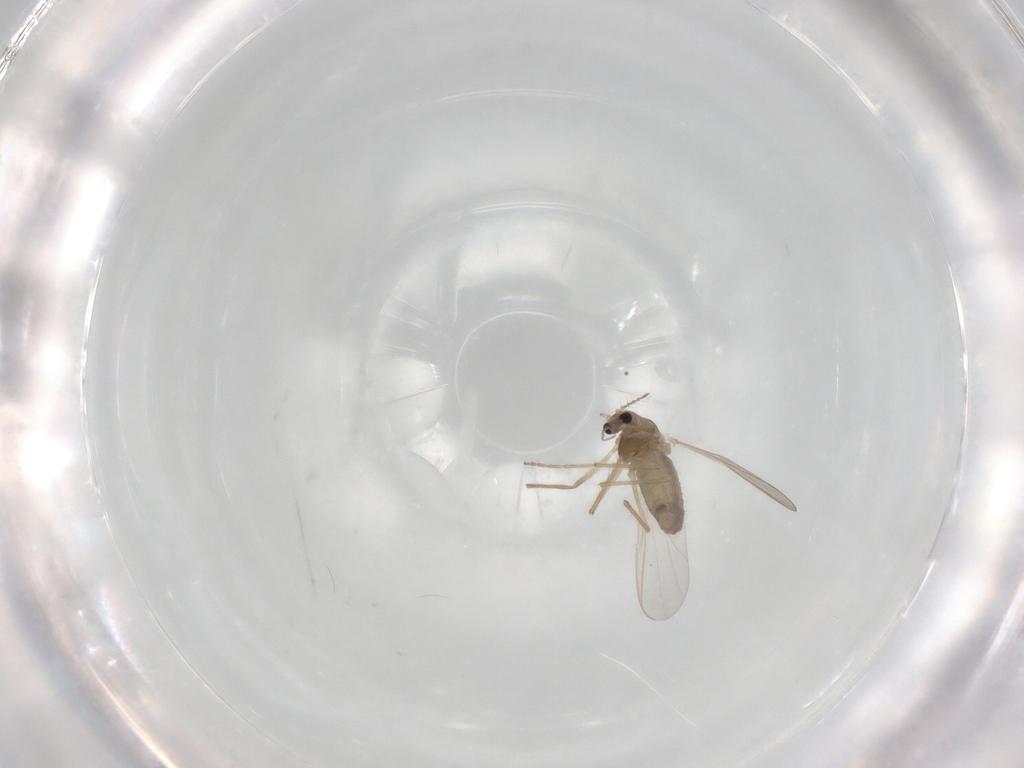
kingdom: Animalia
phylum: Arthropoda
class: Insecta
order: Diptera
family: Chironomidae
